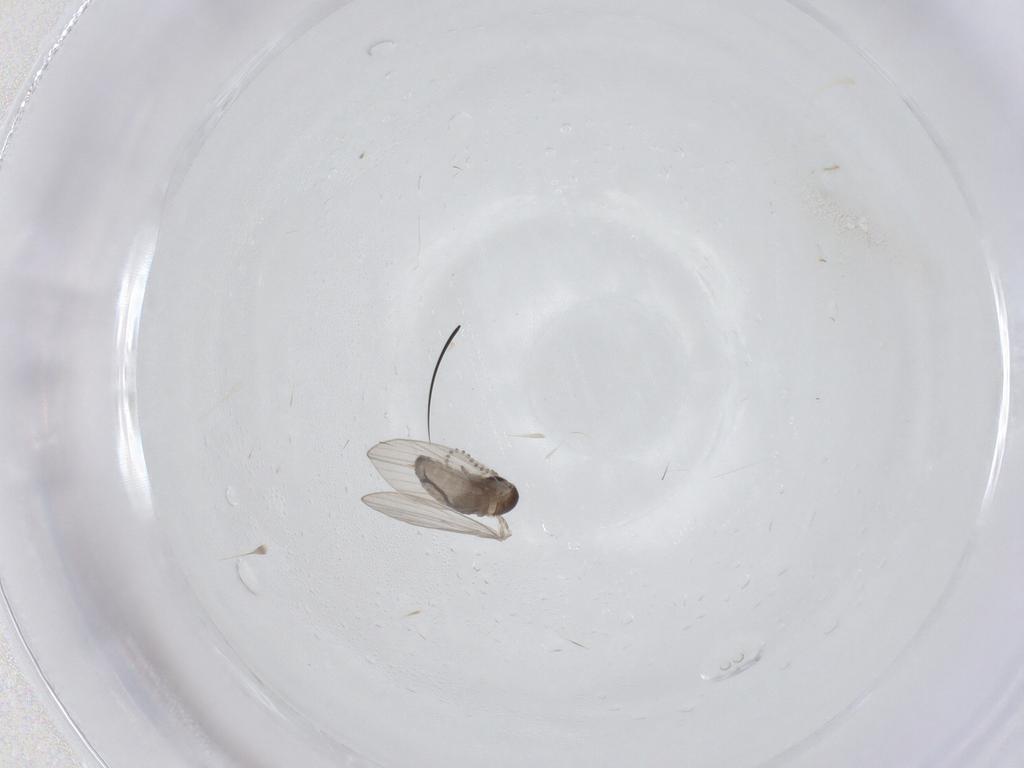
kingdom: Animalia
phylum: Arthropoda
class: Insecta
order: Diptera
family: Psychodidae
